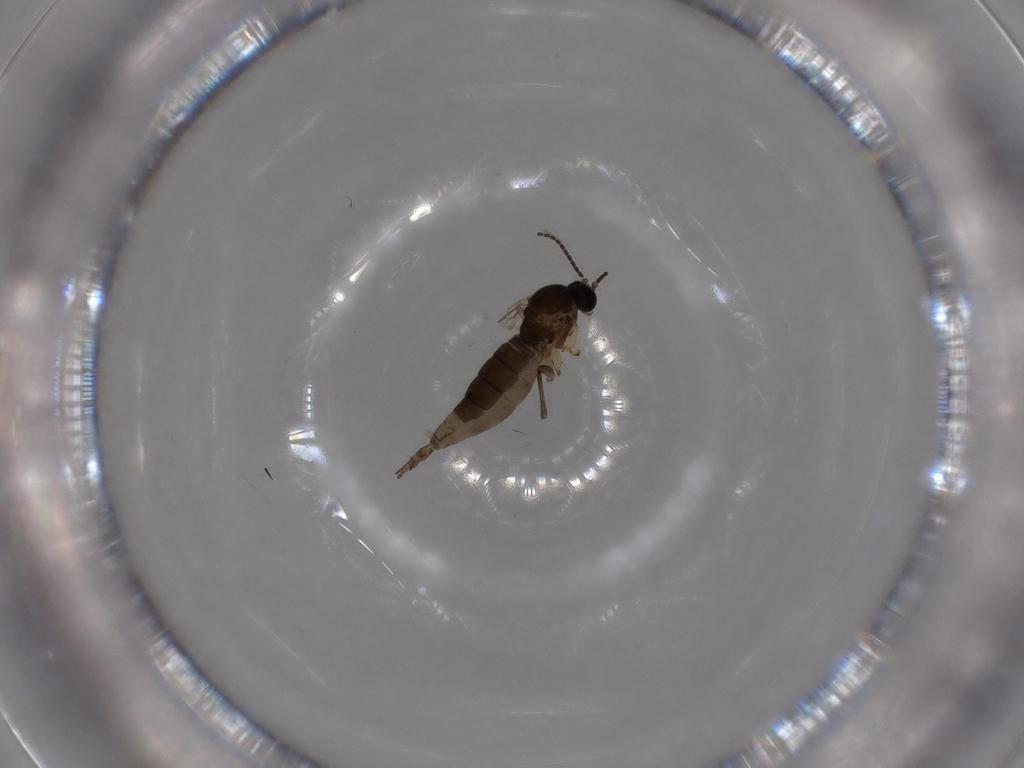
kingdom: Animalia
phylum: Arthropoda
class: Insecta
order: Diptera
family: Sciaridae
